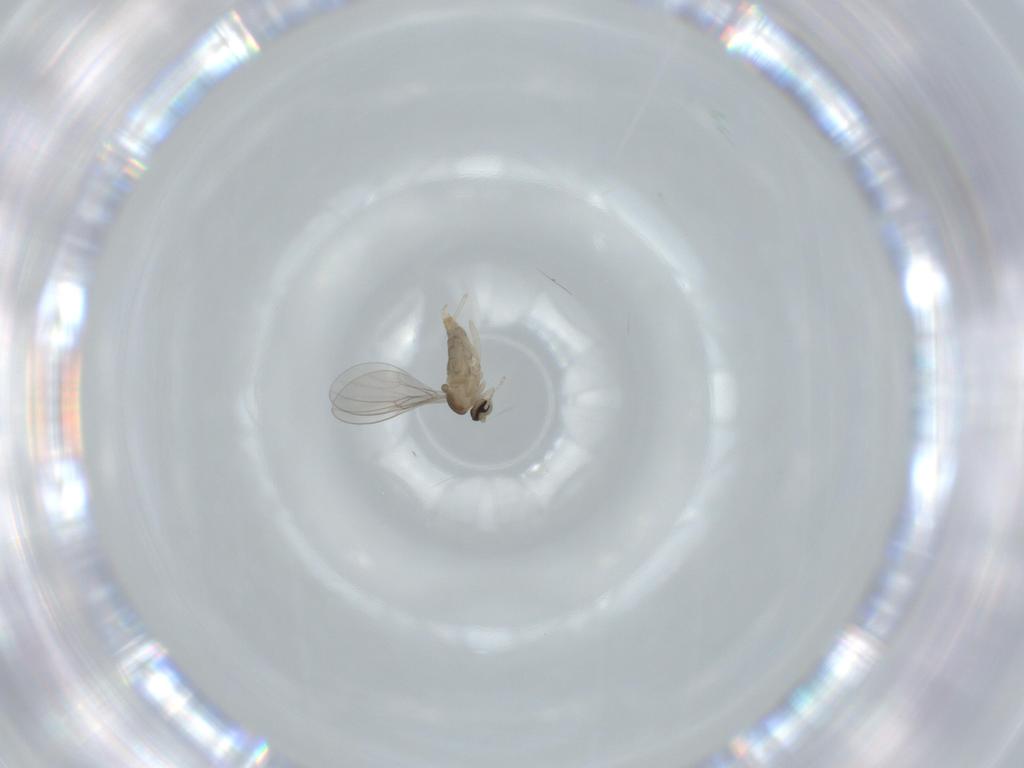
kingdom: Animalia
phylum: Arthropoda
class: Insecta
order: Diptera
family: Cecidomyiidae
